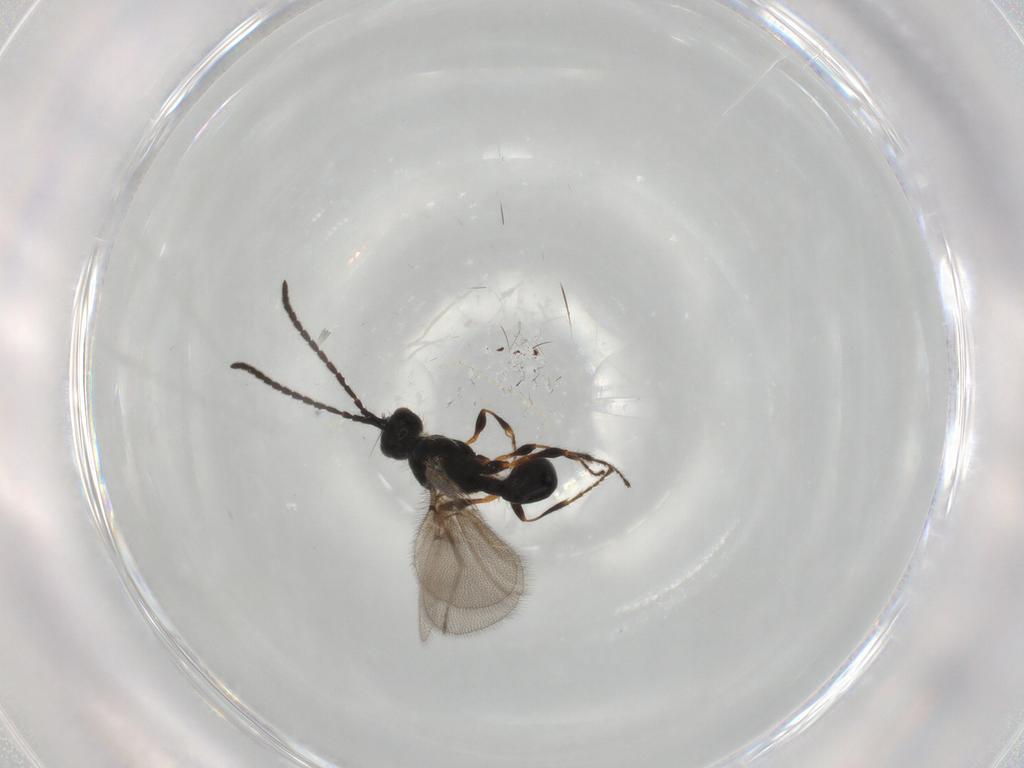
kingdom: Animalia
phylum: Arthropoda
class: Insecta
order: Hymenoptera
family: Diapriidae
